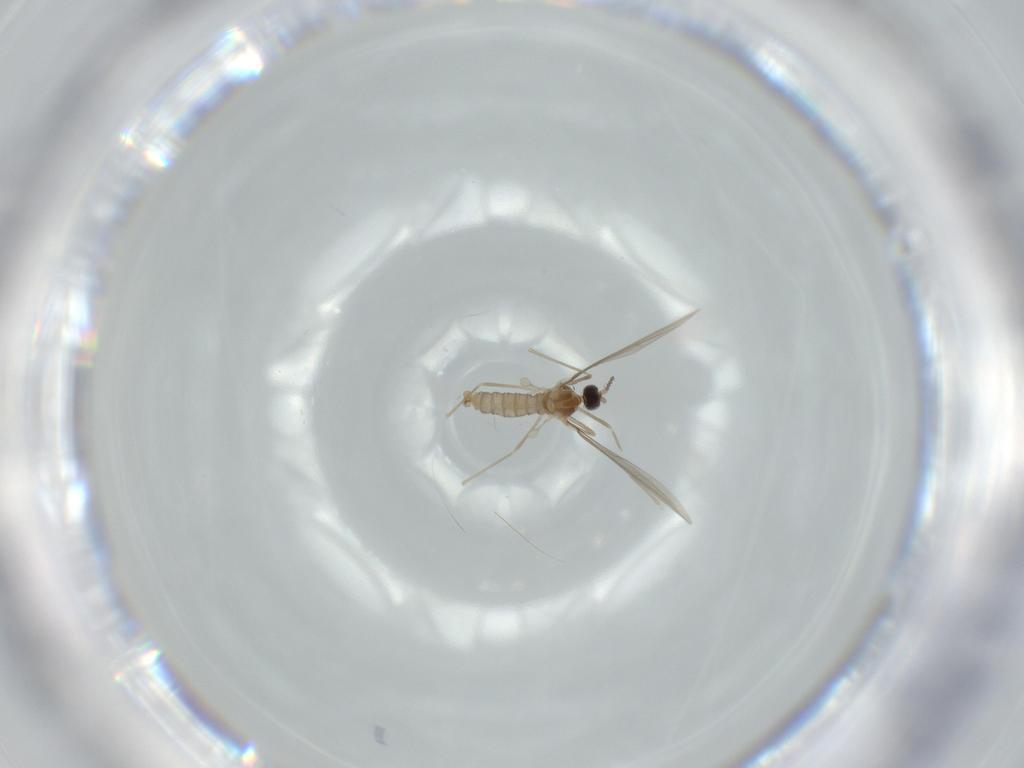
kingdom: Animalia
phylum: Arthropoda
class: Insecta
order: Diptera
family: Cecidomyiidae
